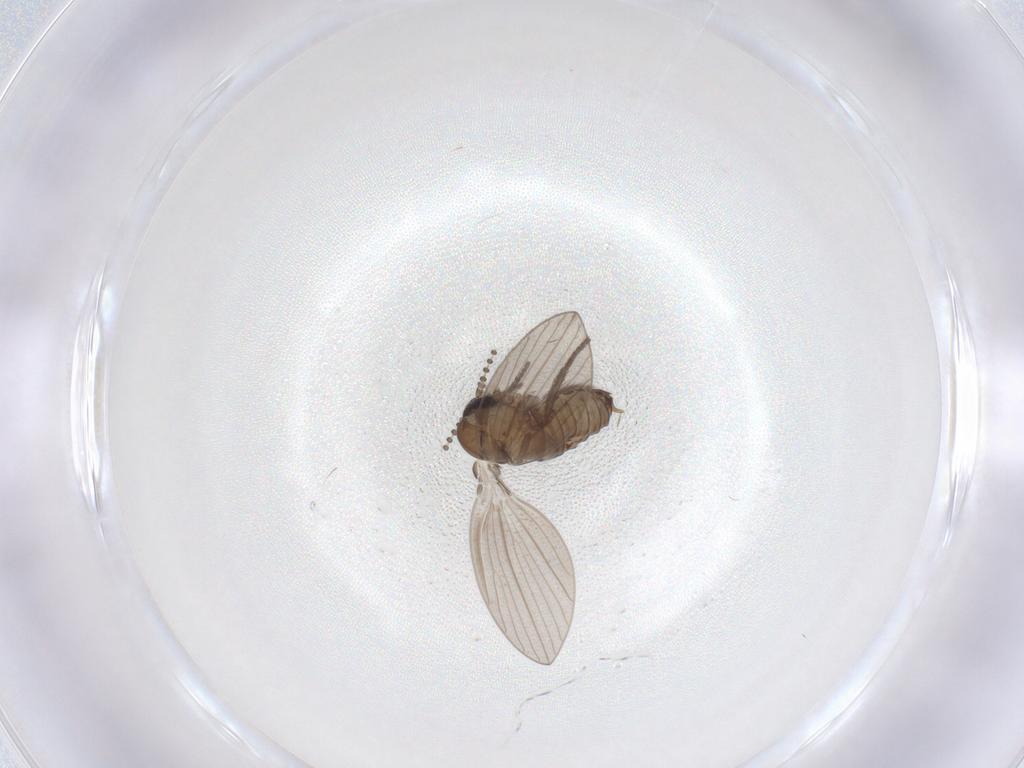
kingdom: Animalia
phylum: Arthropoda
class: Insecta
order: Diptera
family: Psychodidae
